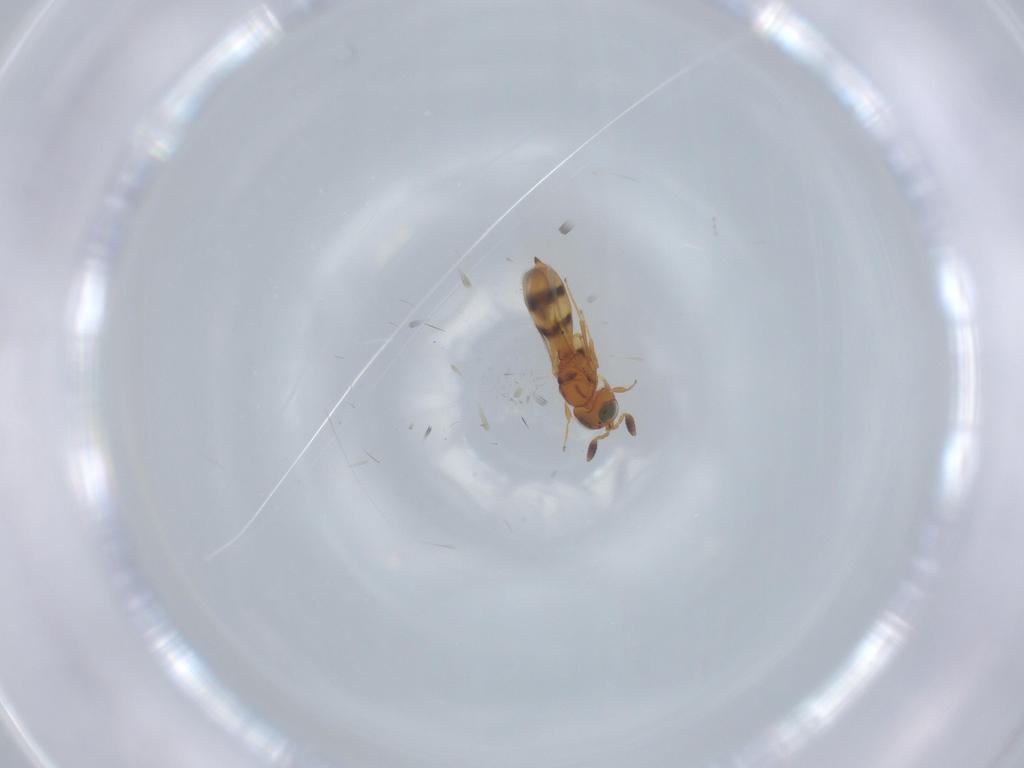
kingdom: Animalia
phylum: Arthropoda
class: Insecta
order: Hymenoptera
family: Scelionidae
